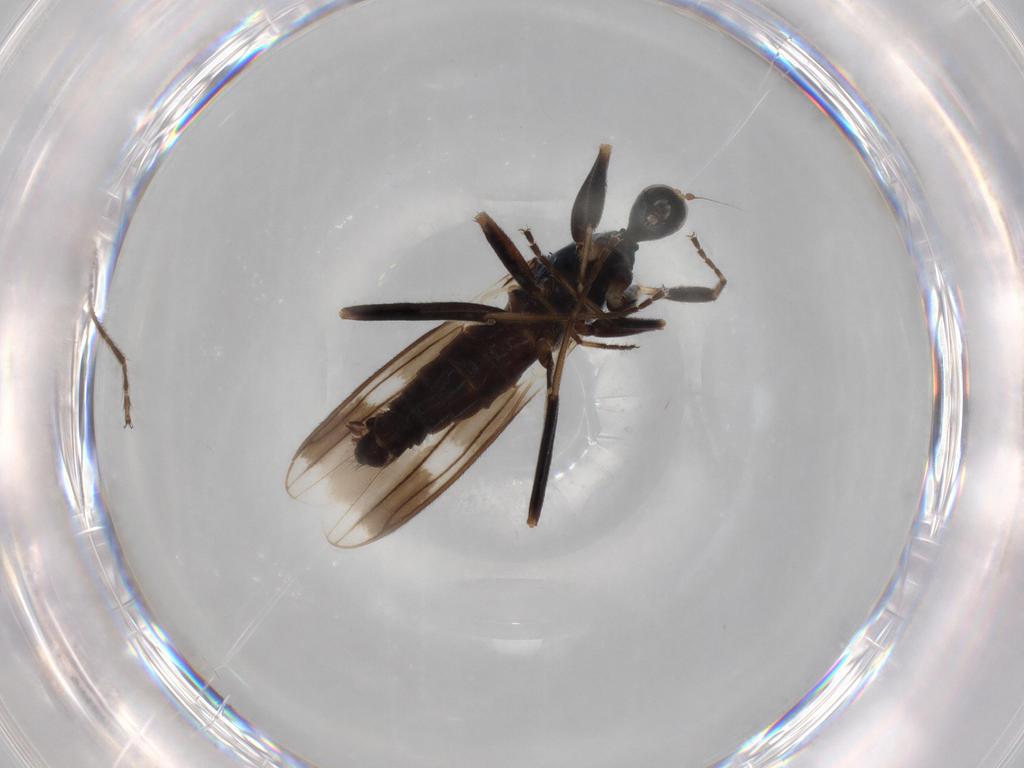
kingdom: Animalia
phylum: Arthropoda
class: Insecta
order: Diptera
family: Hybotidae
